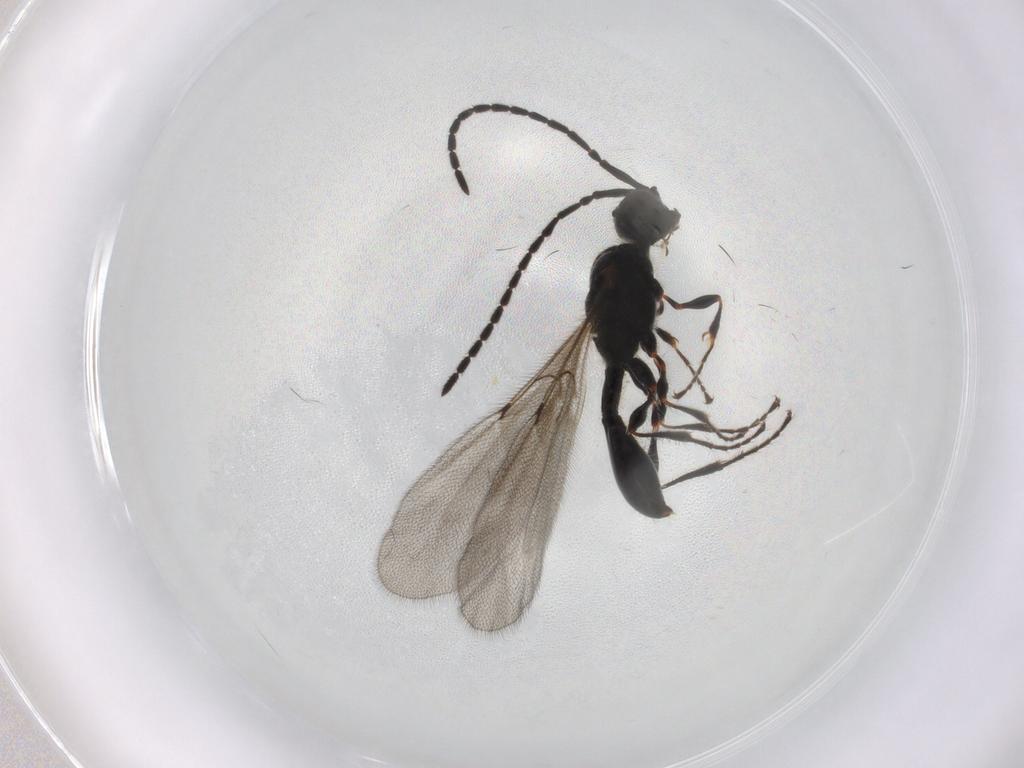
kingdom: Animalia
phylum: Arthropoda
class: Insecta
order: Hymenoptera
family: Diapriidae
